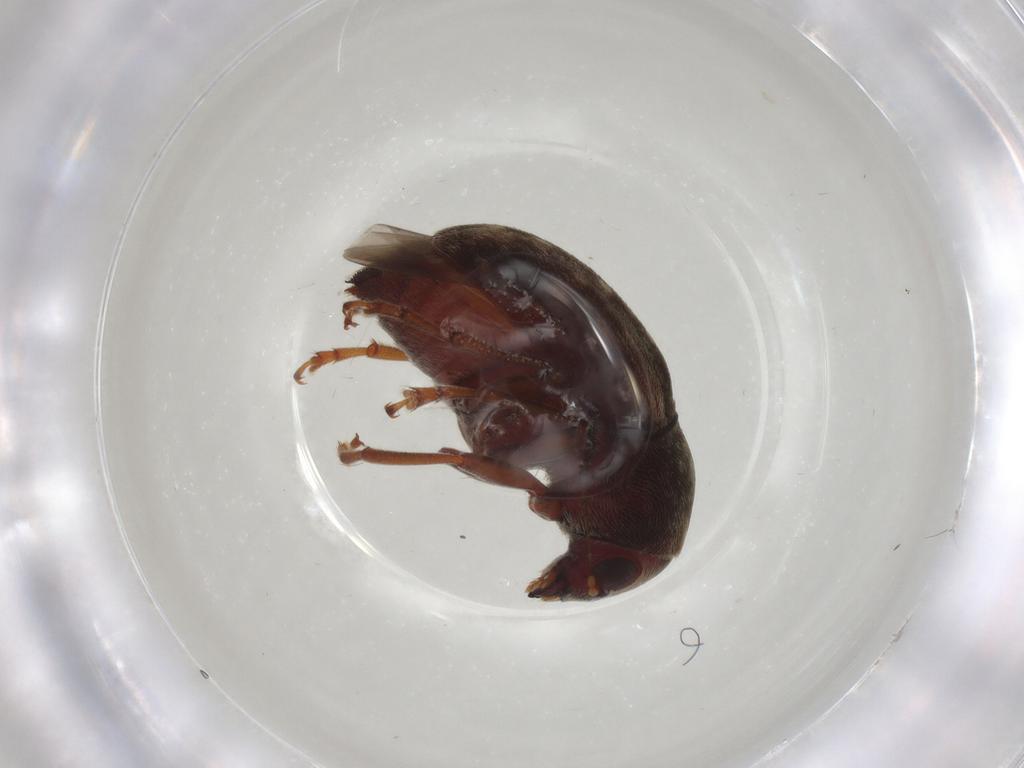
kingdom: Animalia
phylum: Arthropoda
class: Insecta
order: Coleoptera
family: Anthribidae
